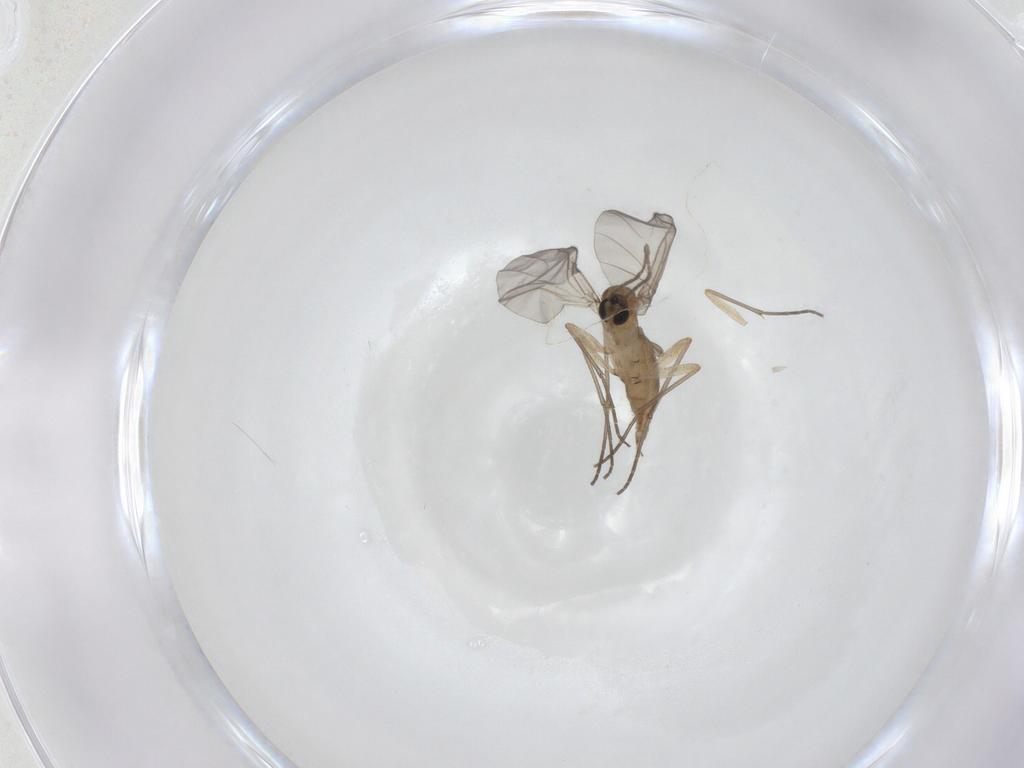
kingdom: Animalia
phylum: Arthropoda
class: Insecta
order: Diptera
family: Sciaridae
